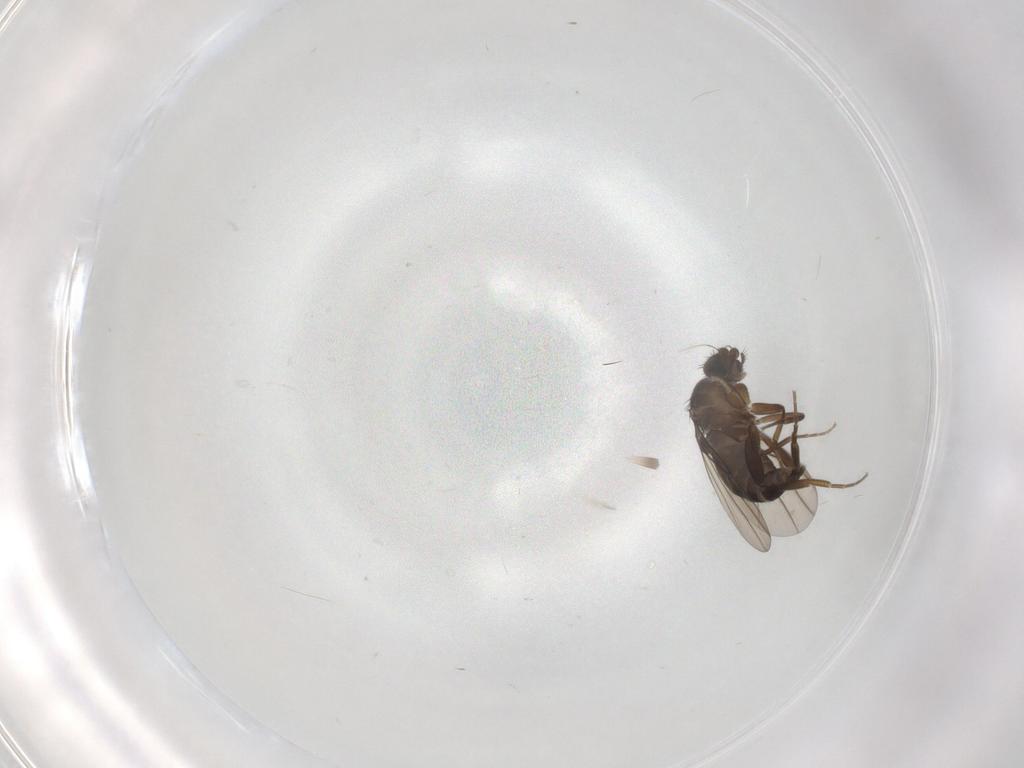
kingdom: Animalia
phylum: Arthropoda
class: Insecta
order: Diptera
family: Phoridae
